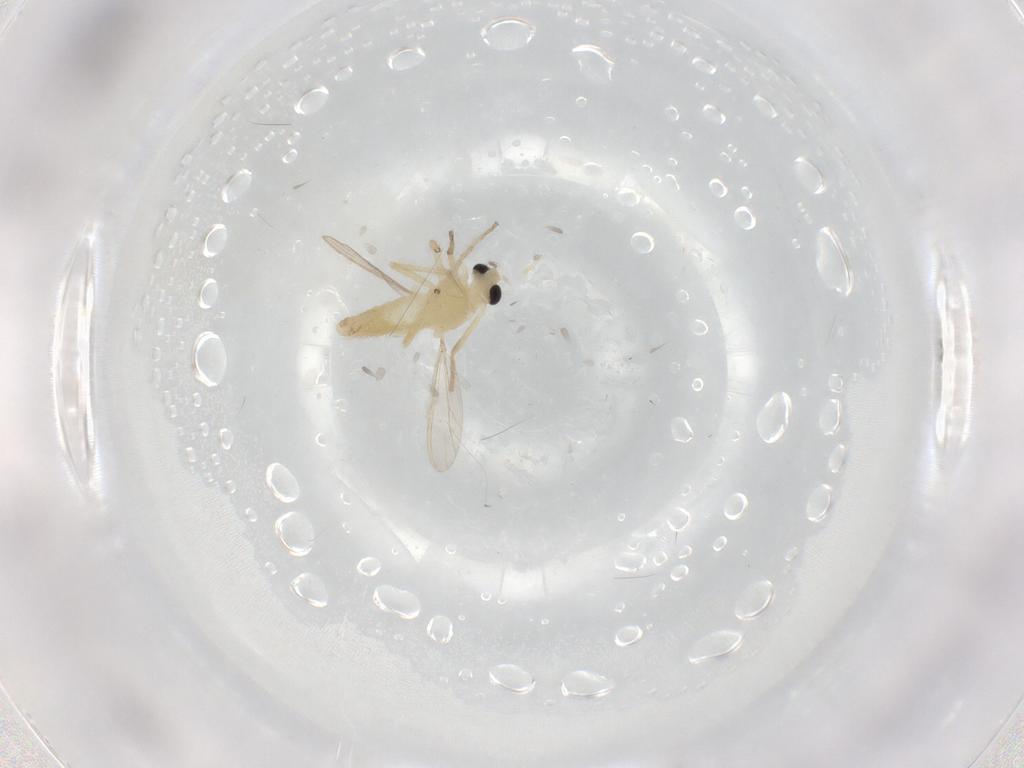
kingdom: Animalia
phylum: Arthropoda
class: Insecta
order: Diptera
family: Chironomidae
